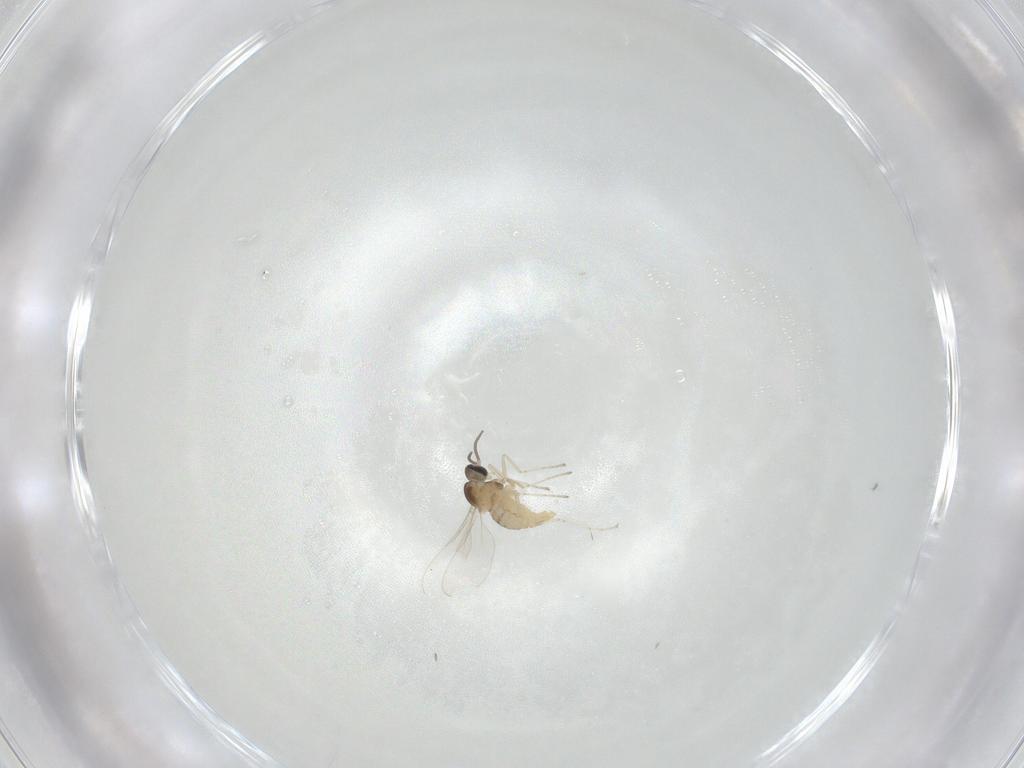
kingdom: Animalia
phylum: Arthropoda
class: Insecta
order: Diptera
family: Cecidomyiidae
